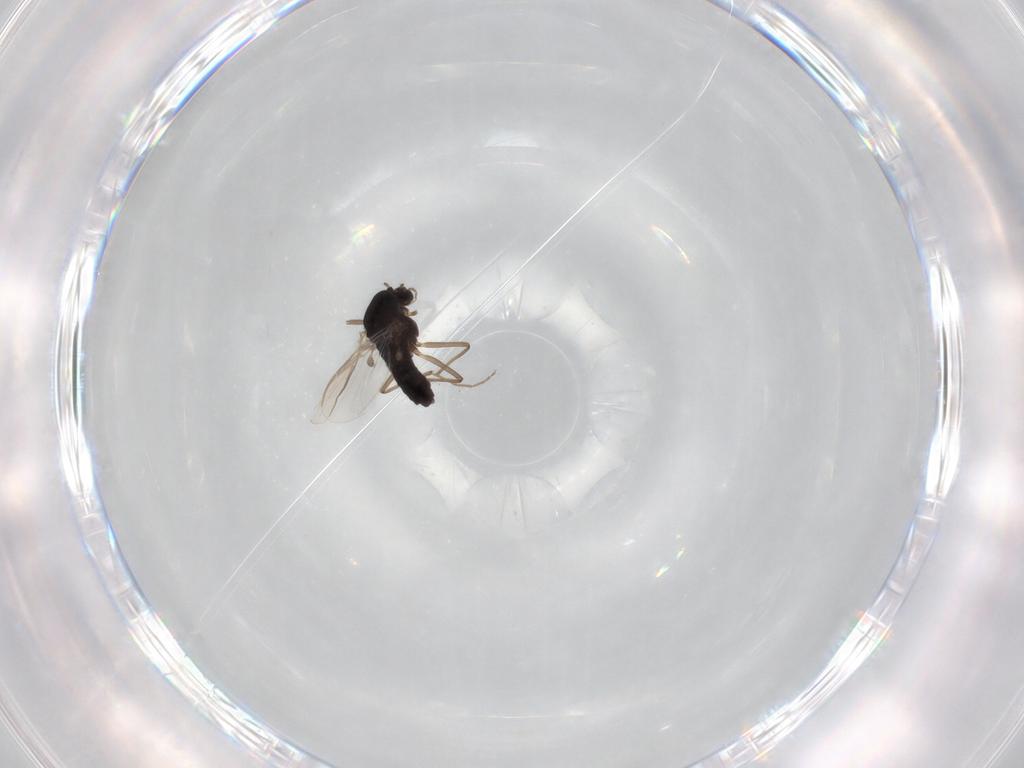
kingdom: Animalia
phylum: Arthropoda
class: Insecta
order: Diptera
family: Chironomidae
